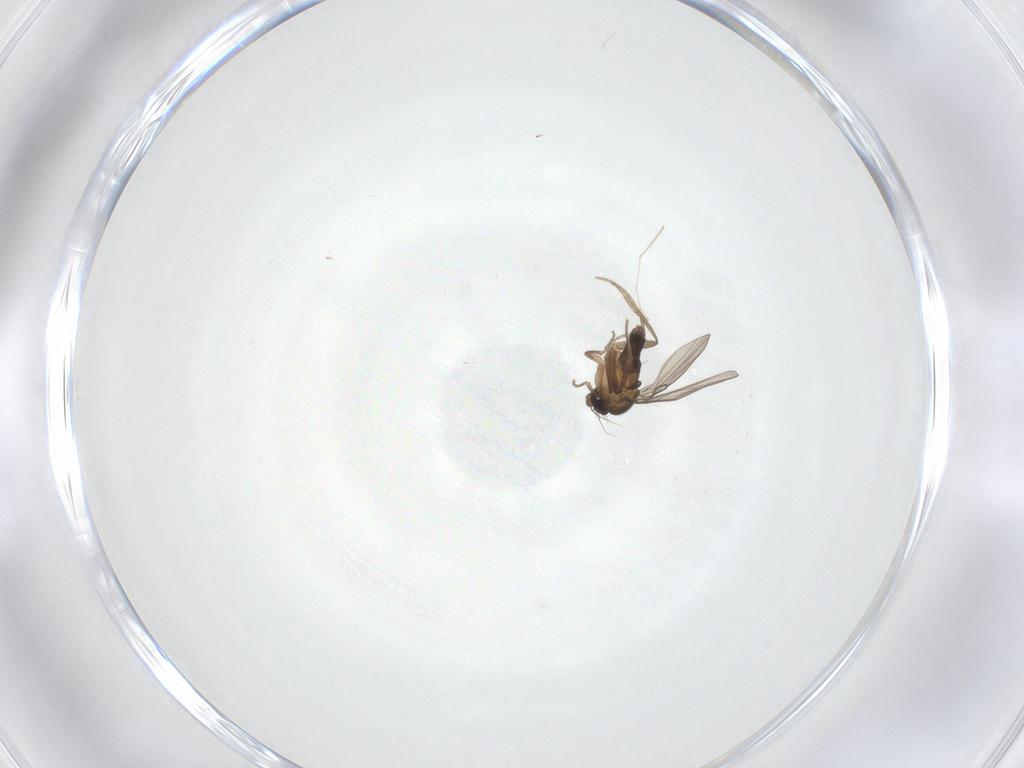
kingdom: Animalia
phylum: Arthropoda
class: Insecta
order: Diptera
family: Phoridae
